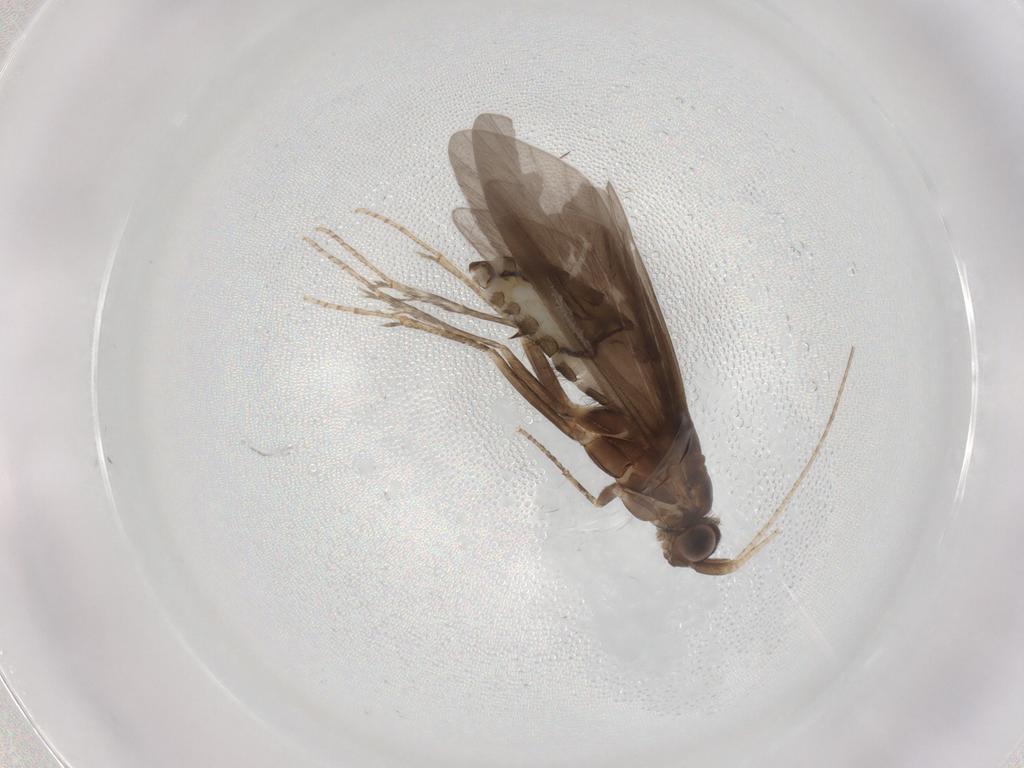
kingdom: Animalia
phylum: Arthropoda
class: Insecta
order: Trichoptera
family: Helicopsychidae
